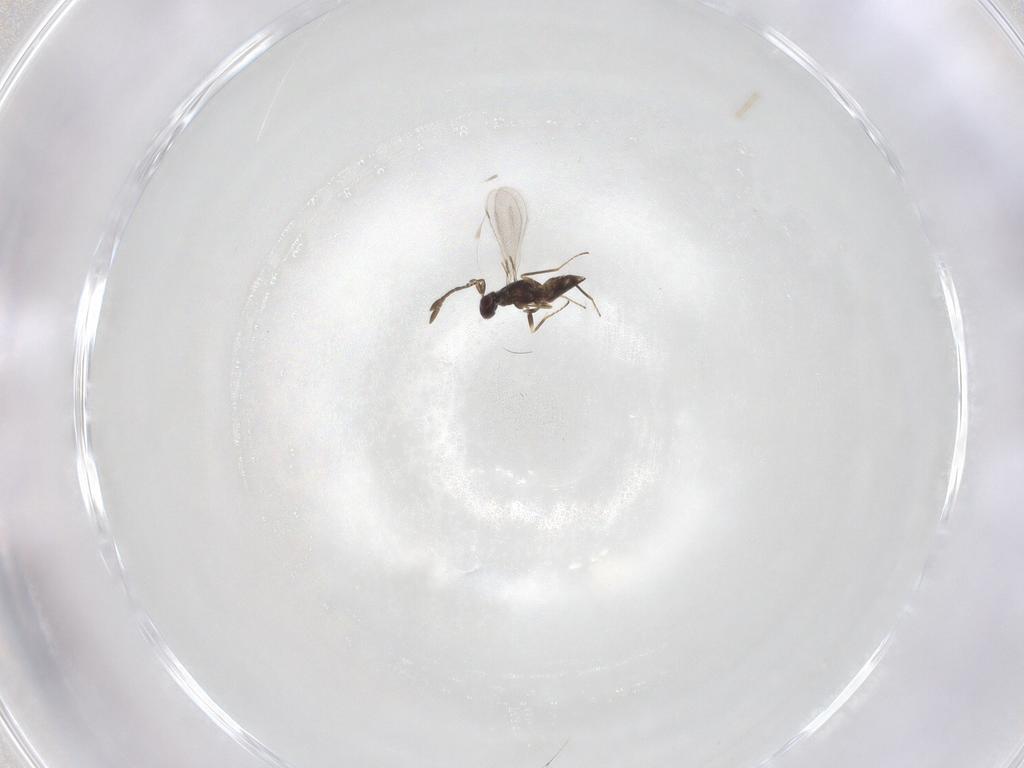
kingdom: Animalia
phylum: Arthropoda
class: Insecta
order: Hymenoptera
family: Mymaridae
